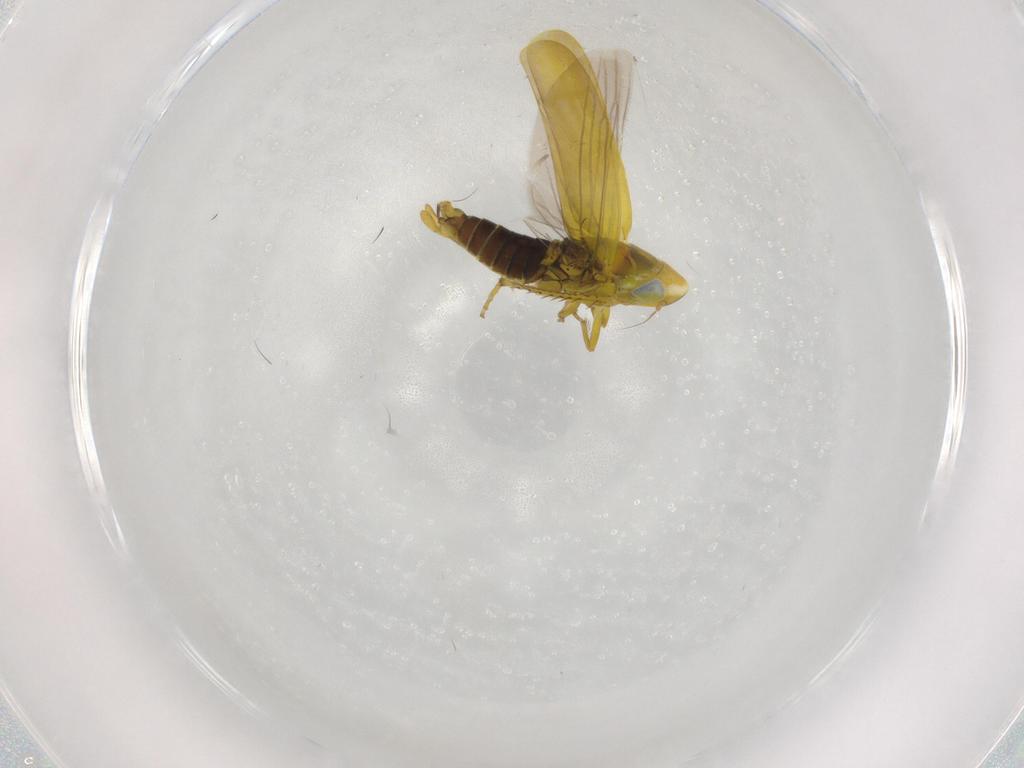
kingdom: Animalia
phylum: Arthropoda
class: Insecta
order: Hemiptera
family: Cicadellidae
